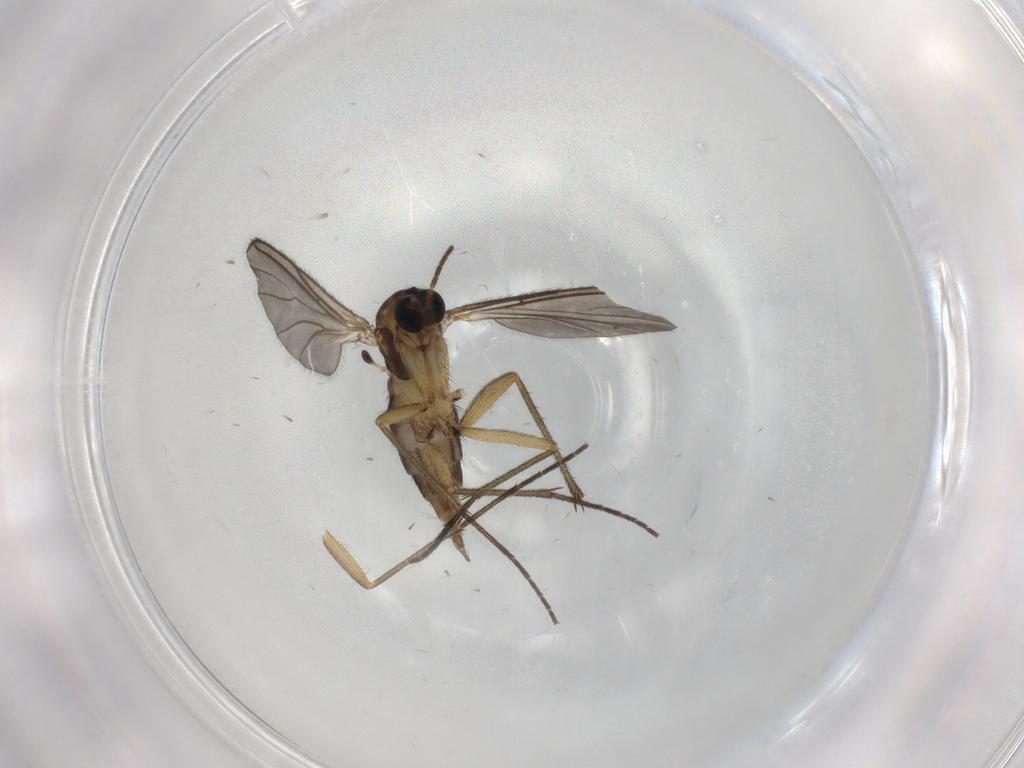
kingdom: Animalia
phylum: Arthropoda
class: Insecta
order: Diptera
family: Sciaridae
